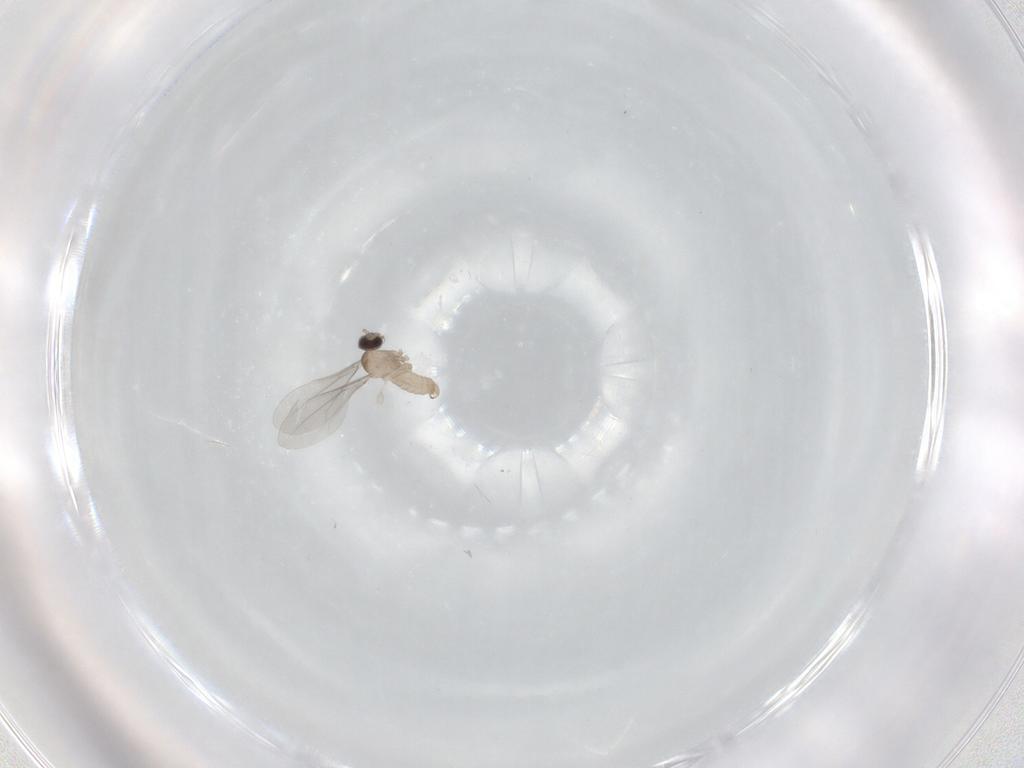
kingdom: Animalia
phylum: Arthropoda
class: Insecta
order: Diptera
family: Cecidomyiidae
